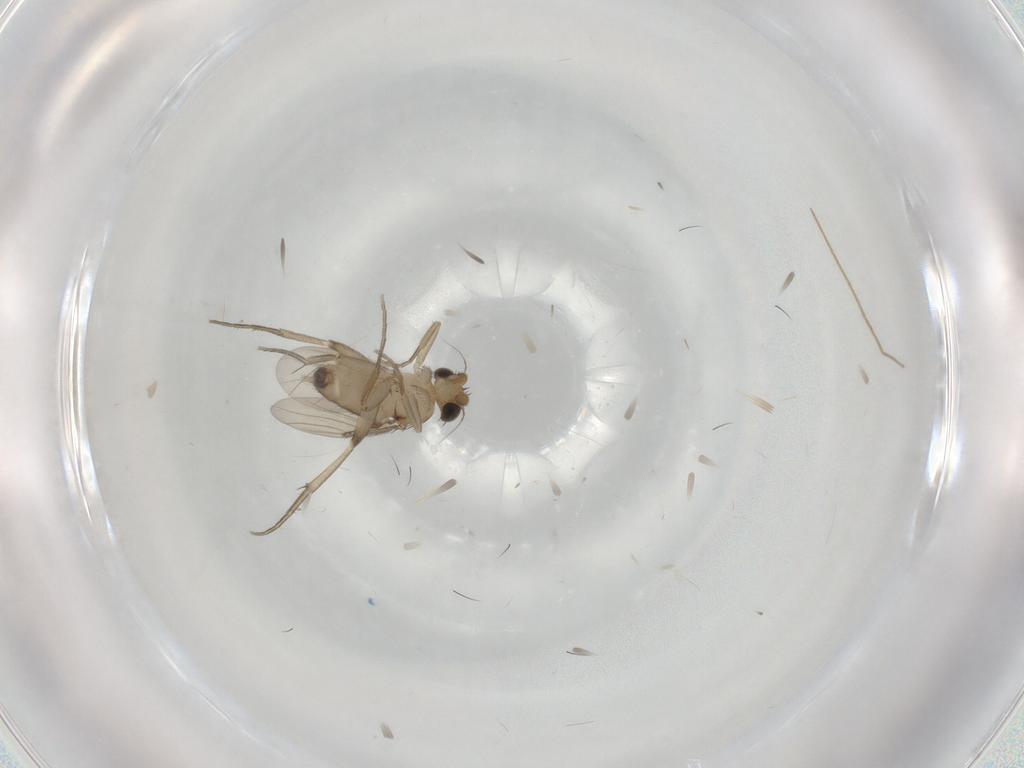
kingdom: Animalia
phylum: Arthropoda
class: Insecta
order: Diptera
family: Phoridae
